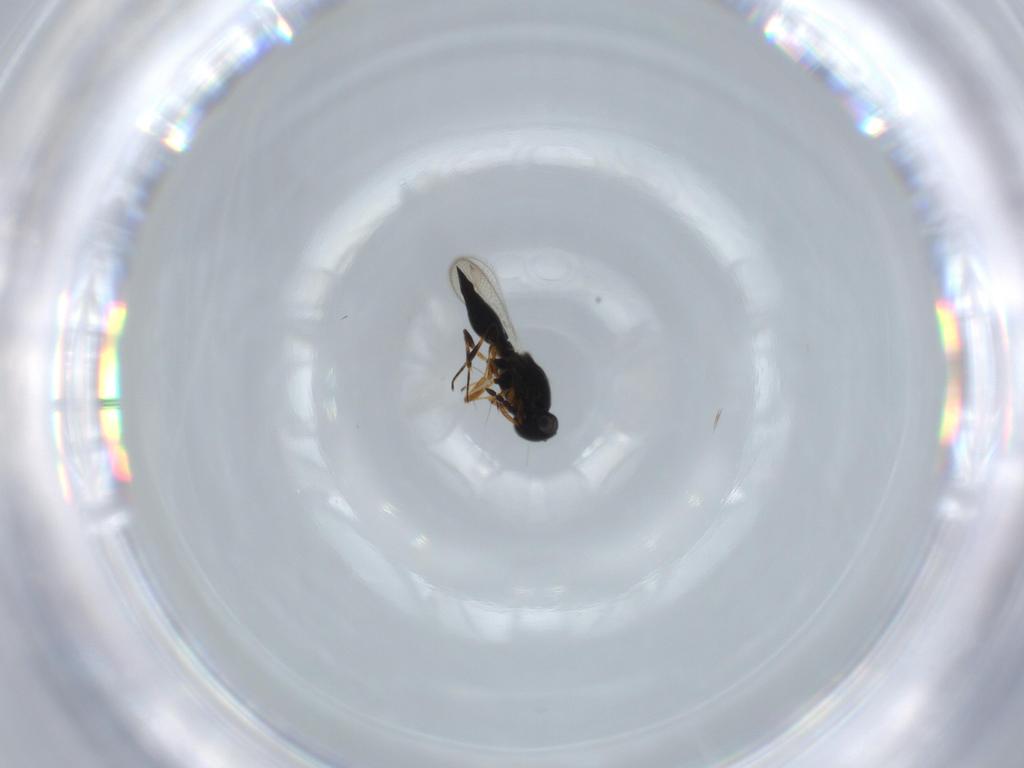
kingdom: Animalia
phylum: Arthropoda
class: Insecta
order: Hymenoptera
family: Platygastridae
